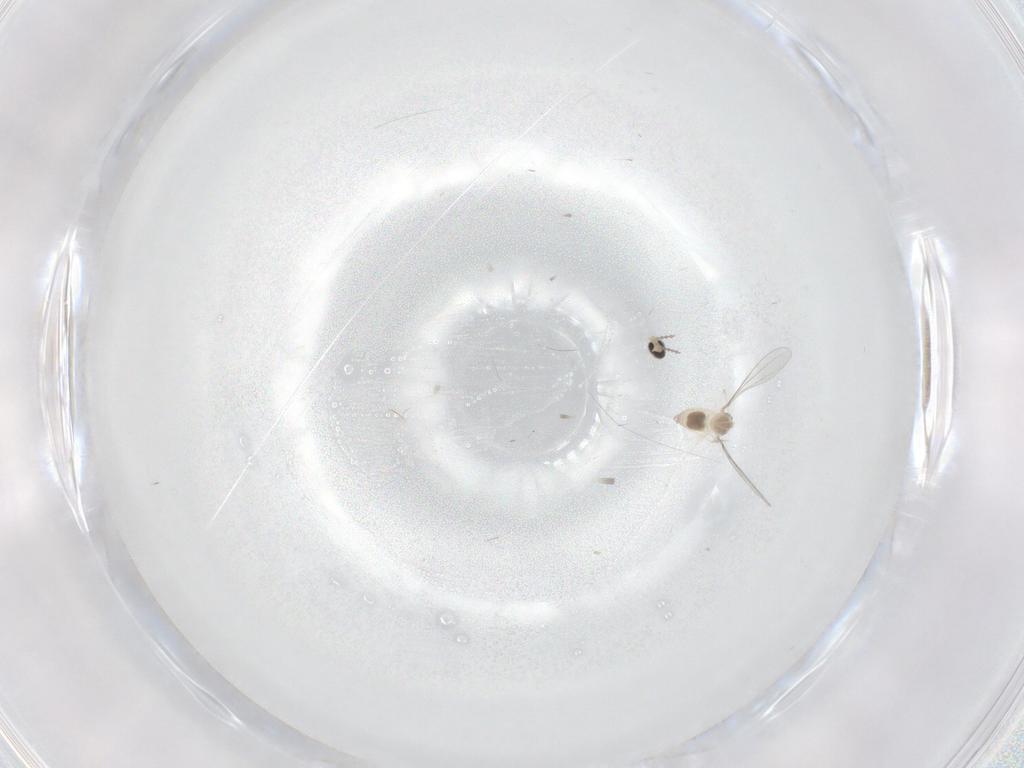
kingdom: Animalia
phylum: Arthropoda
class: Insecta
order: Diptera
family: Cecidomyiidae
